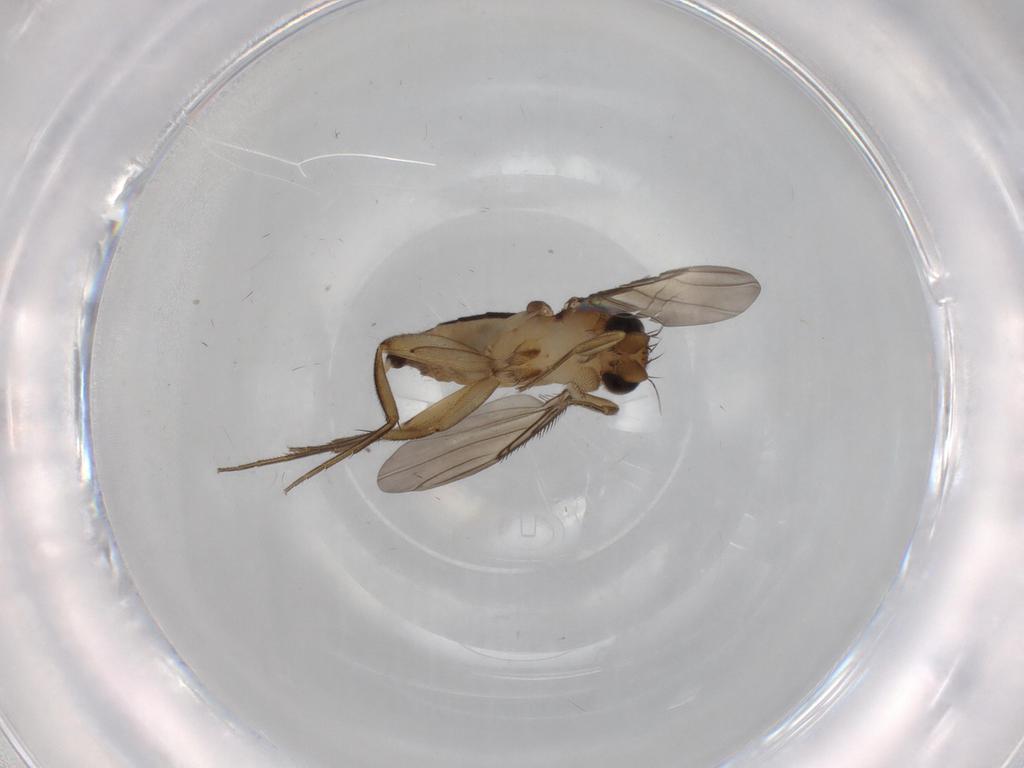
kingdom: Animalia
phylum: Arthropoda
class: Insecta
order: Diptera
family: Phoridae
